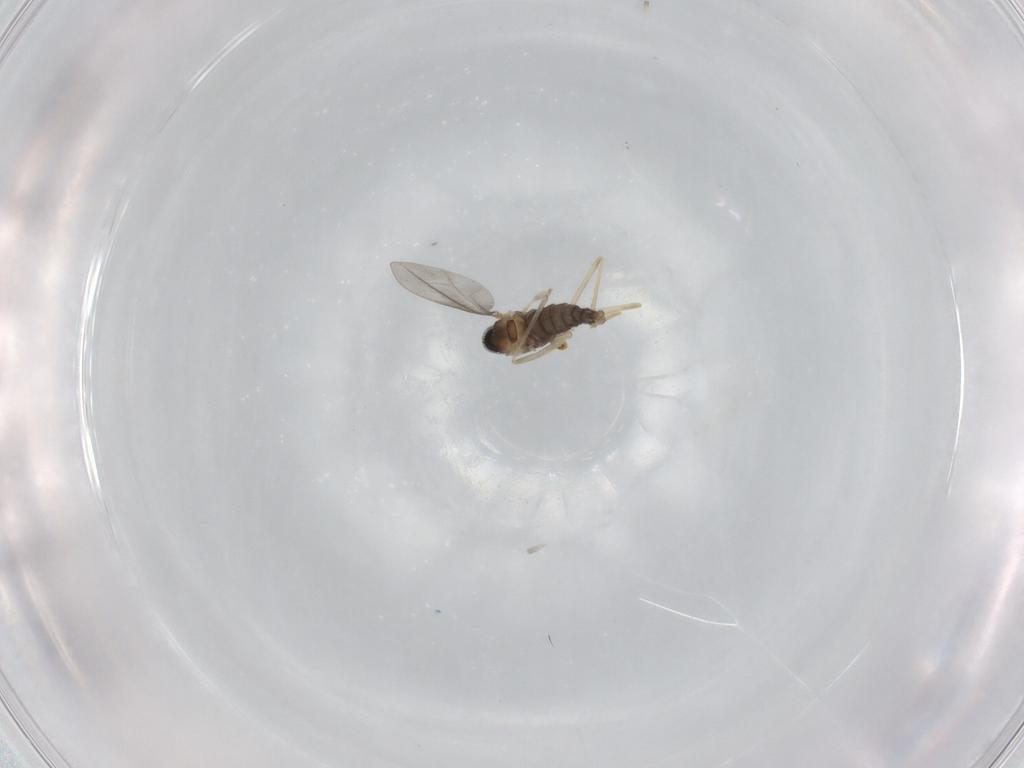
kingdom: Animalia
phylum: Arthropoda
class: Insecta
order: Diptera
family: Cecidomyiidae
